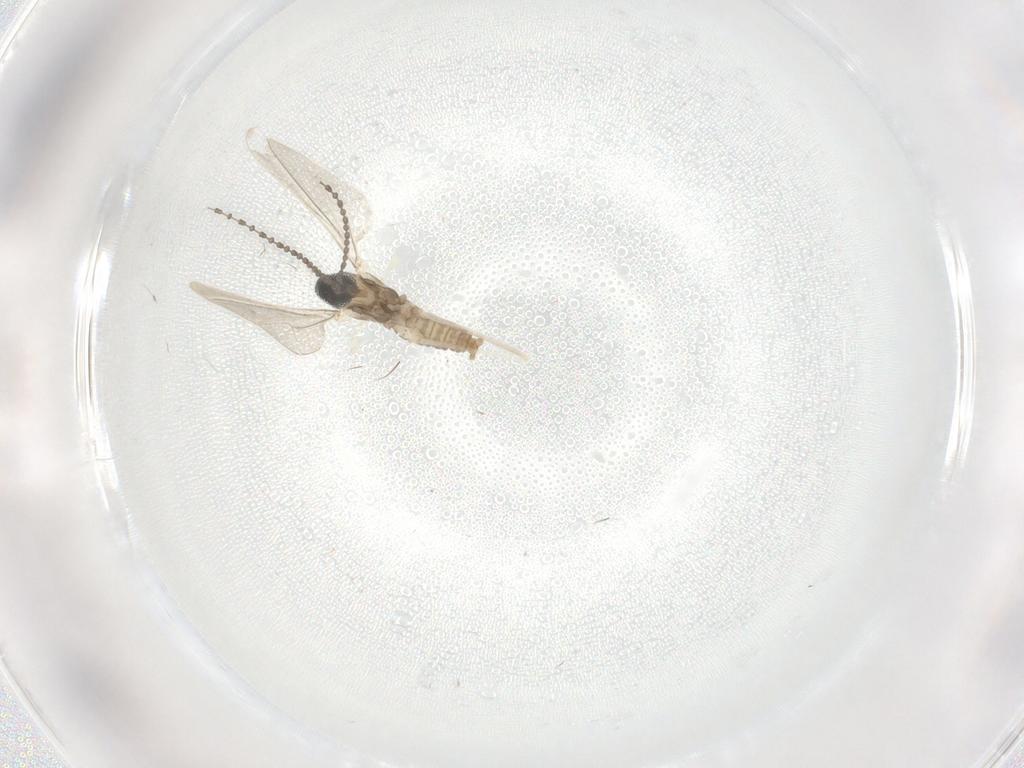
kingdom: Animalia
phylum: Arthropoda
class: Insecta
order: Diptera
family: Cecidomyiidae
